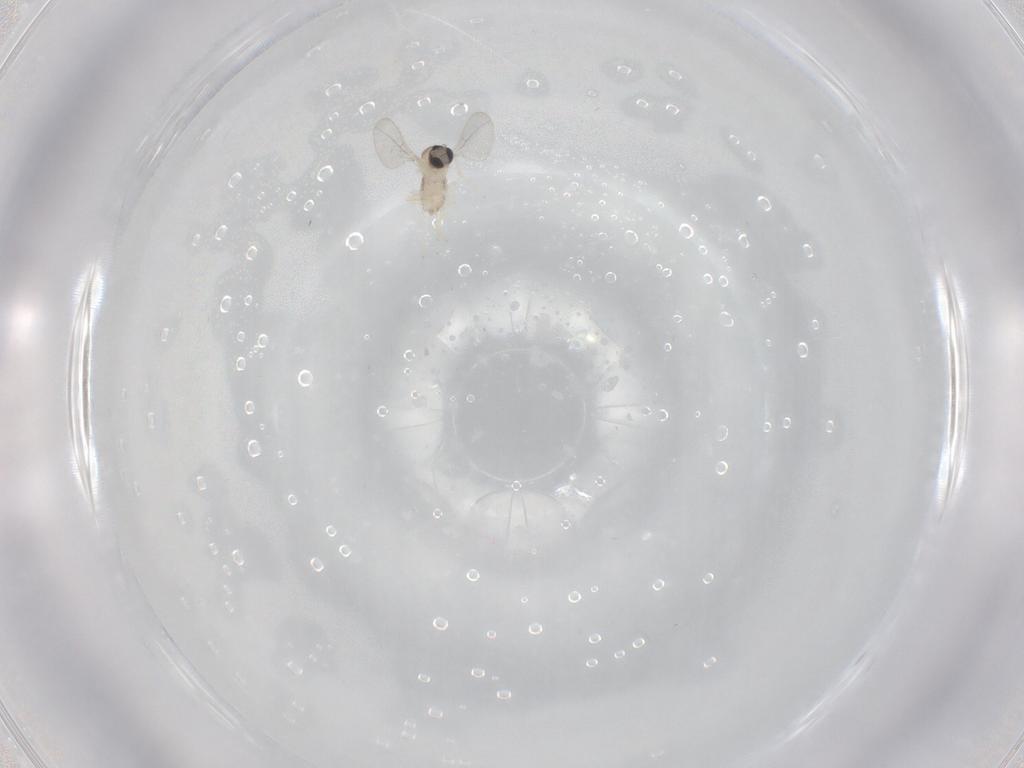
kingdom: Animalia
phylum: Arthropoda
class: Insecta
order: Diptera
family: Cecidomyiidae
